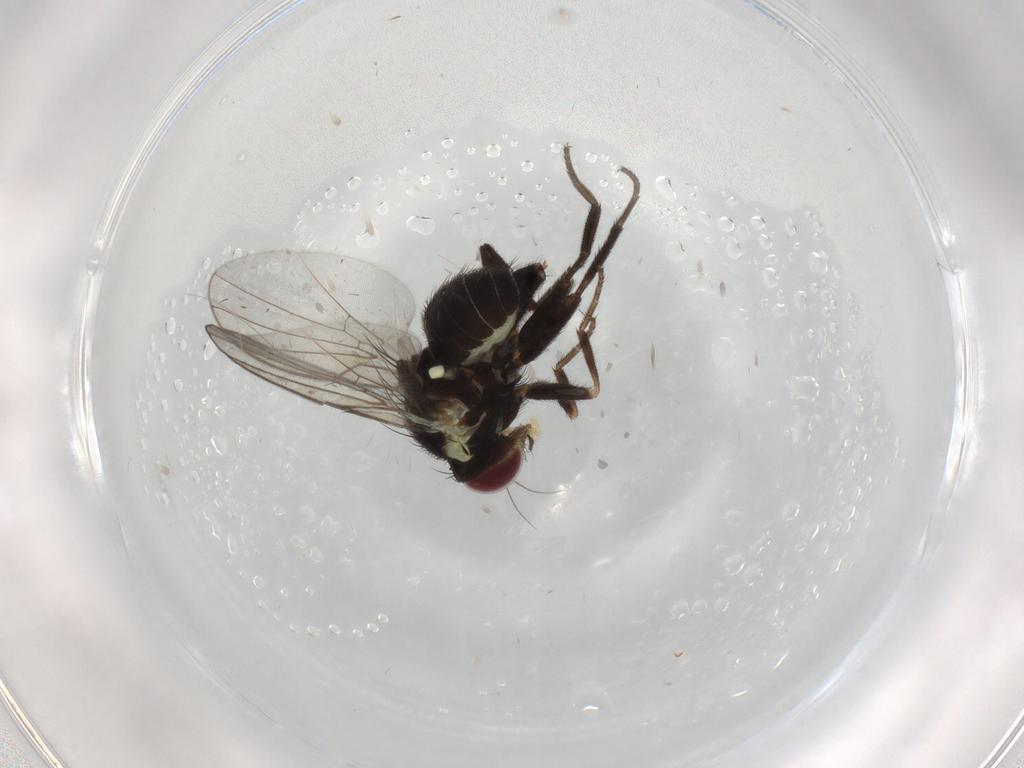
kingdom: Animalia
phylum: Arthropoda
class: Insecta
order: Diptera
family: Agromyzidae
